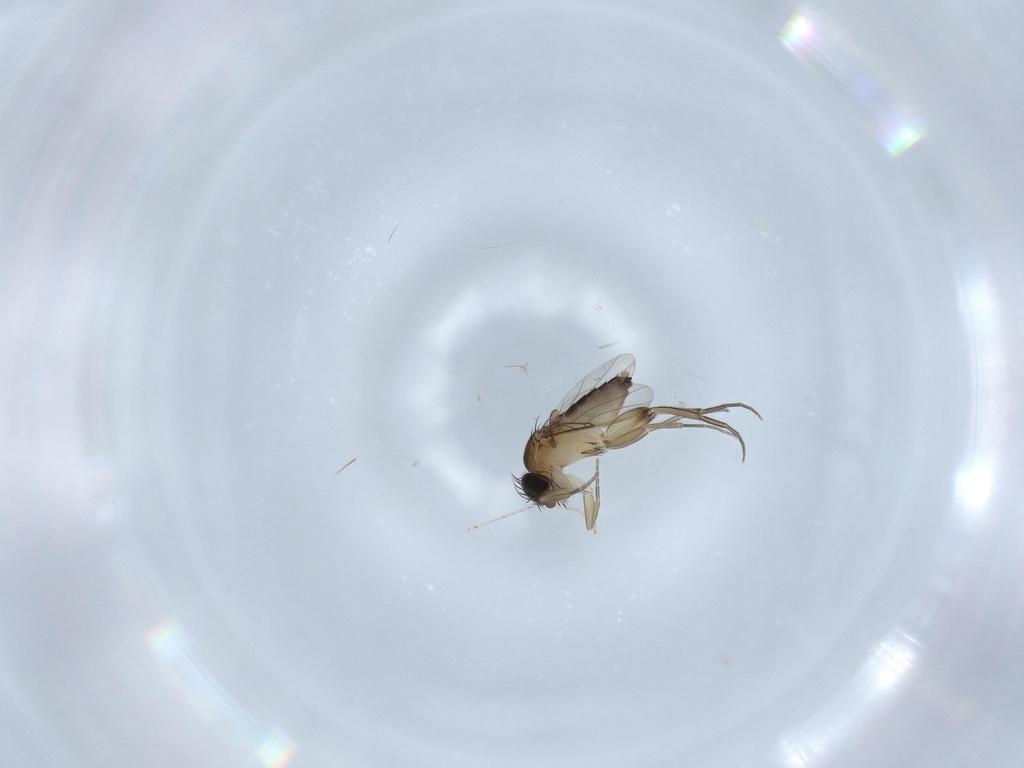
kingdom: Animalia
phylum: Arthropoda
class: Insecta
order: Diptera
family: Phoridae
